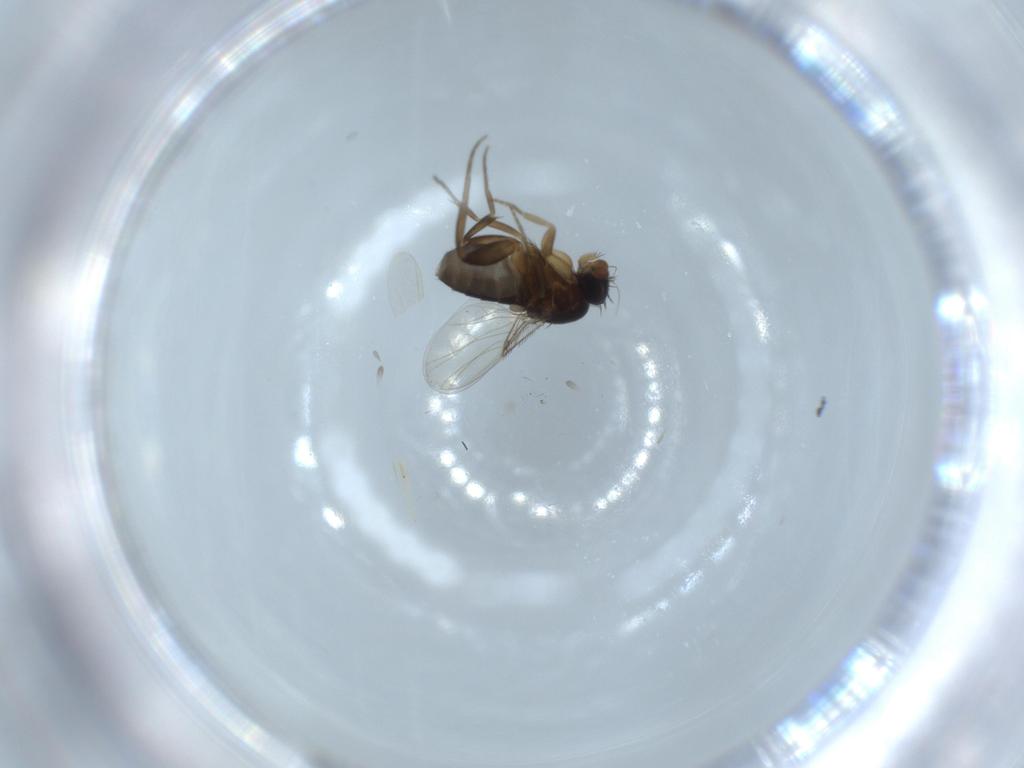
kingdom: Animalia
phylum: Arthropoda
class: Insecta
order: Diptera
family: Phoridae
